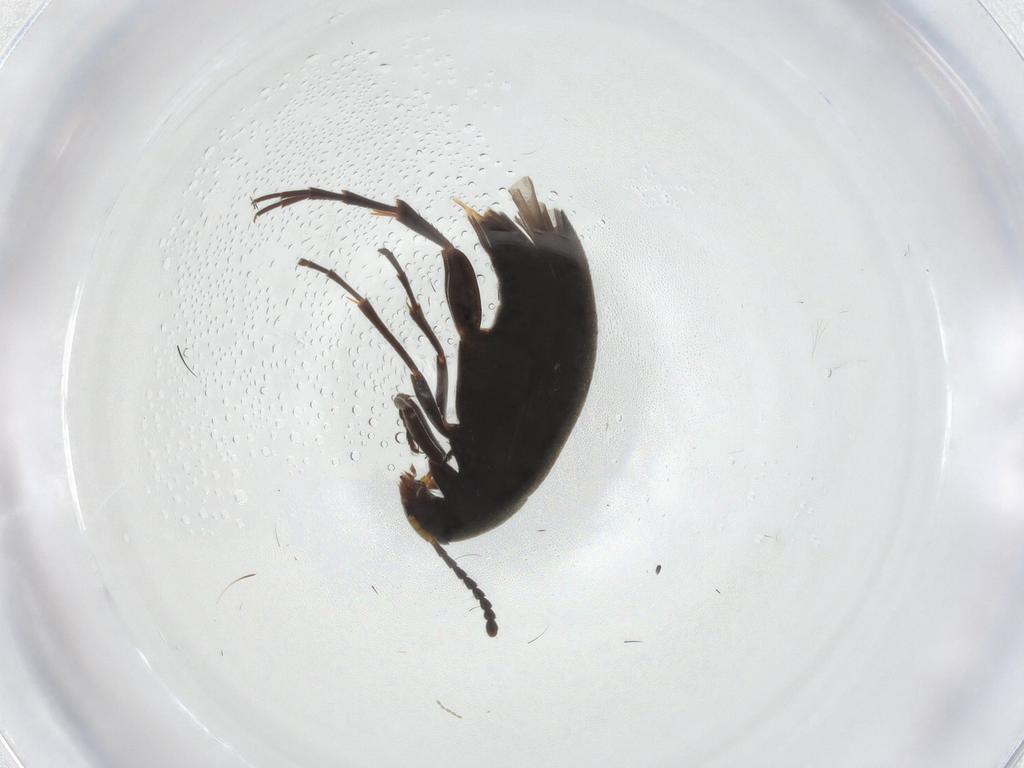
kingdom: Animalia
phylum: Arthropoda
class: Insecta
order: Coleoptera
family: Scraptiidae
